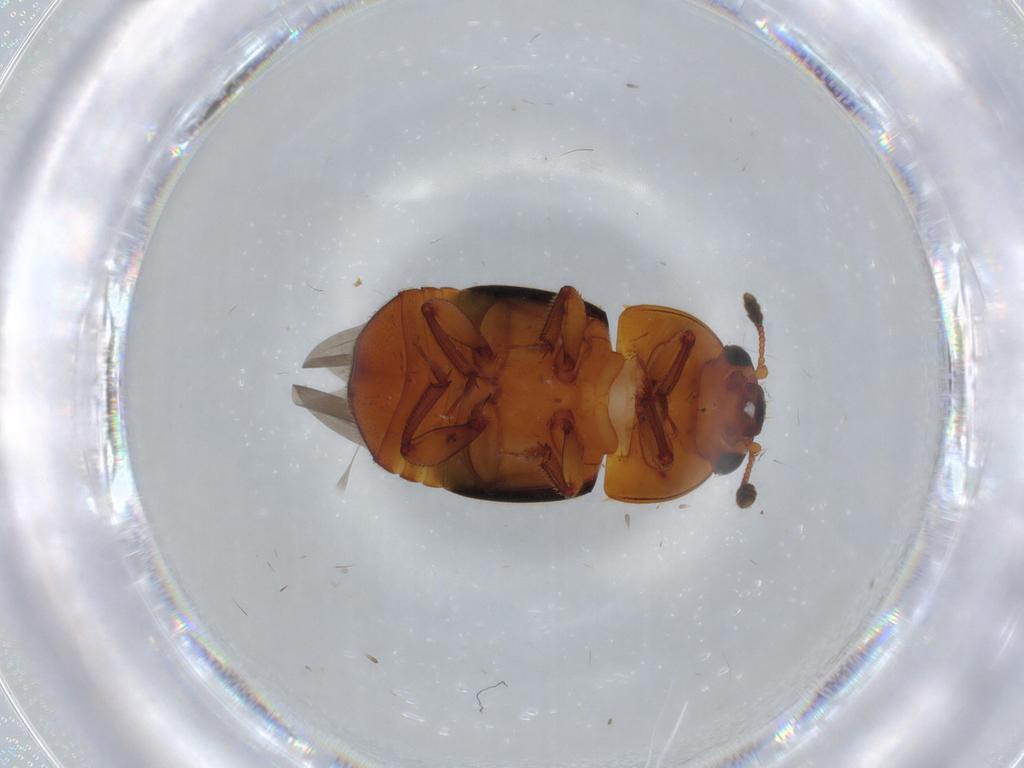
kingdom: Animalia
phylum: Arthropoda
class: Insecta
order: Coleoptera
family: Nitidulidae
